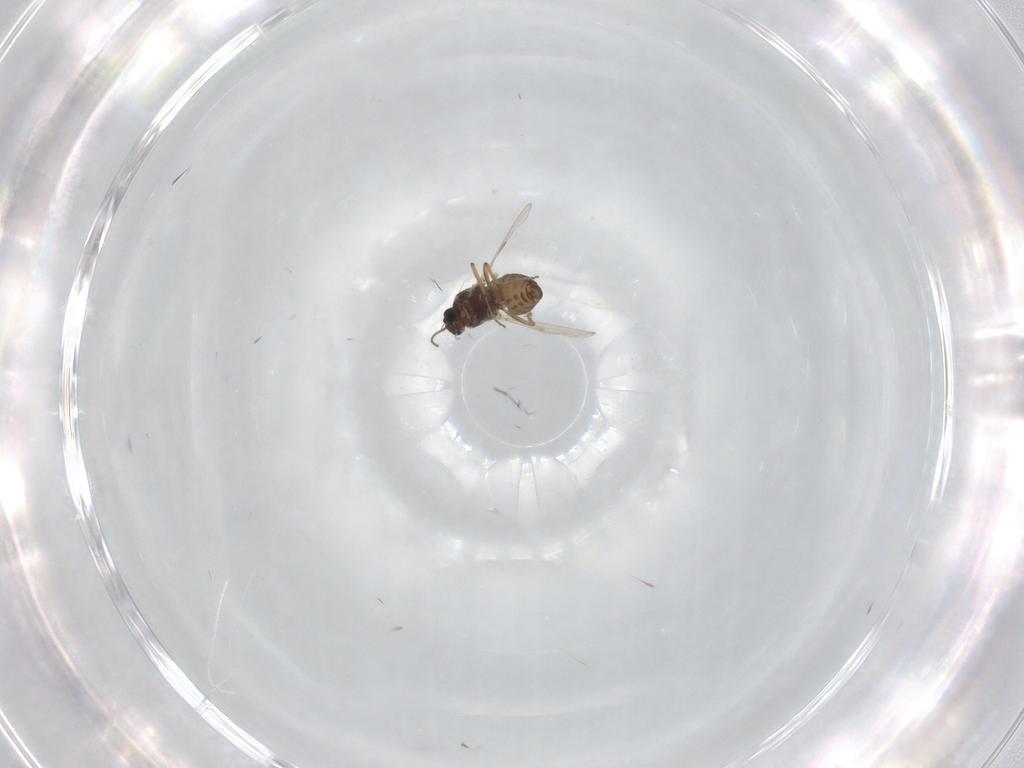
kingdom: Animalia
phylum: Arthropoda
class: Insecta
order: Diptera
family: Ceratopogonidae
